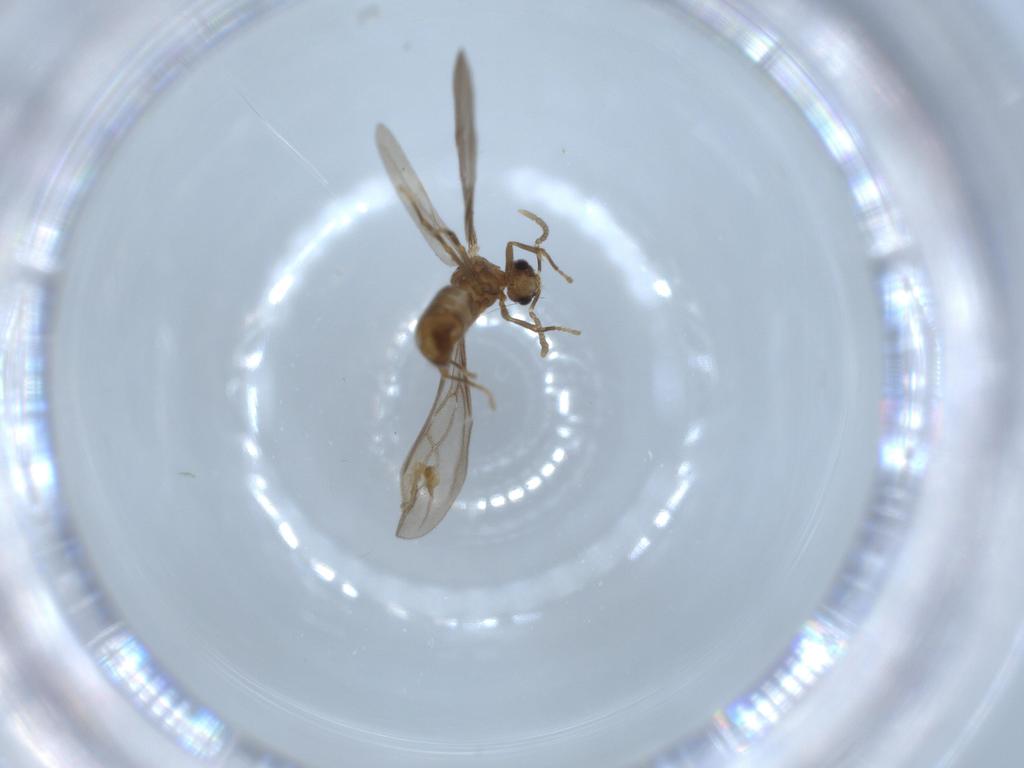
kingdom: Animalia
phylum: Arthropoda
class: Insecta
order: Hymenoptera
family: Formicidae
